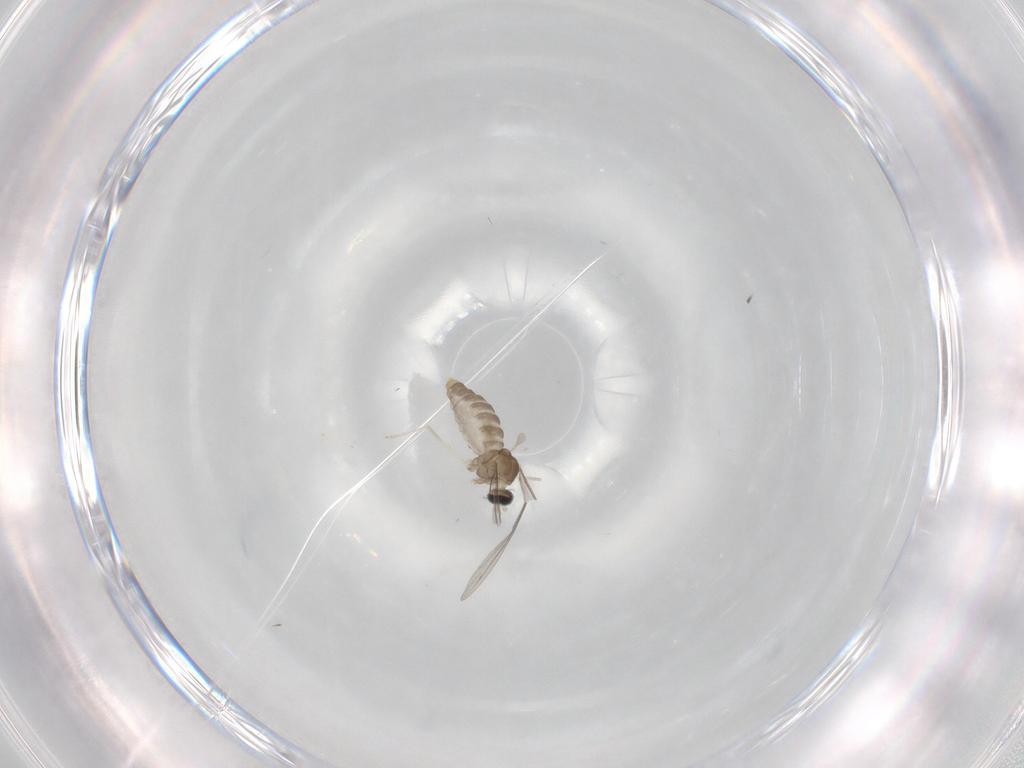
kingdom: Animalia
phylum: Arthropoda
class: Insecta
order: Diptera
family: Cecidomyiidae
